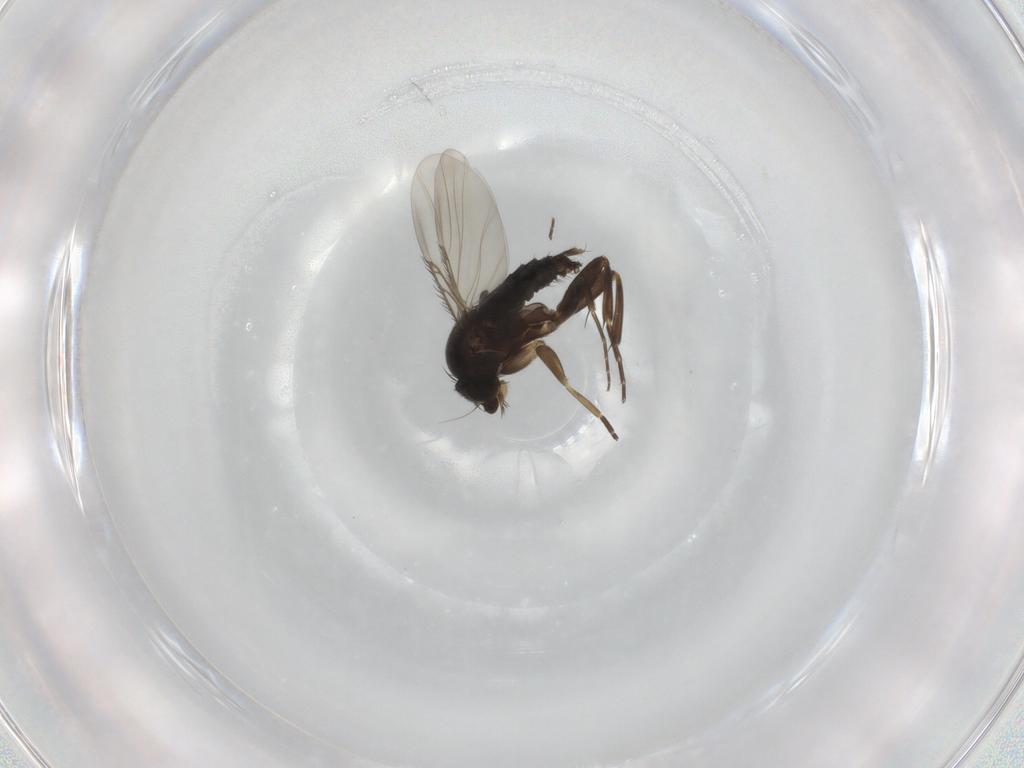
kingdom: Animalia
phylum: Arthropoda
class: Insecta
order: Diptera
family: Phoridae
